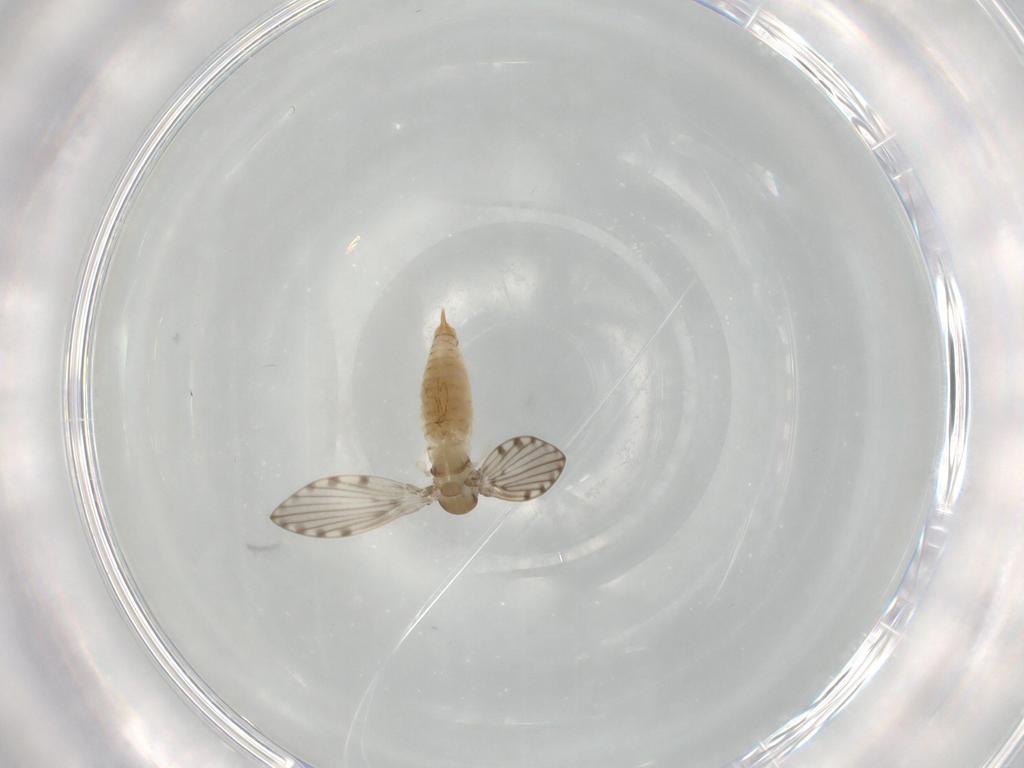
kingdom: Animalia
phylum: Arthropoda
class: Insecta
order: Diptera
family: Psychodidae
